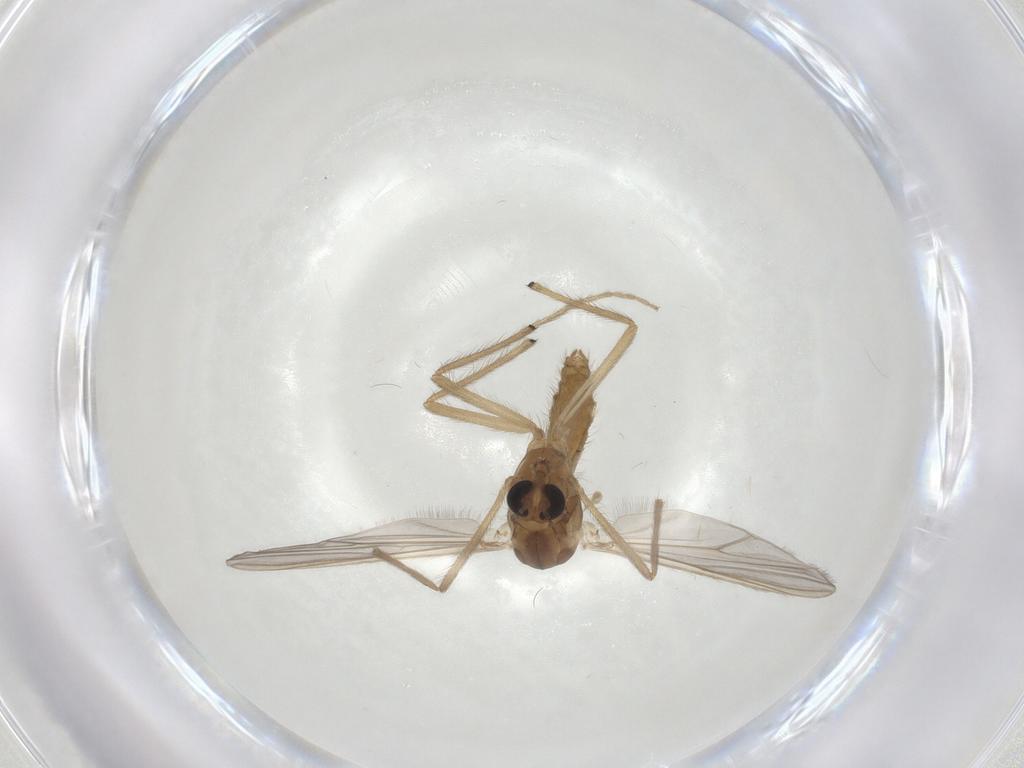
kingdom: Animalia
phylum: Arthropoda
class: Insecta
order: Diptera
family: Chironomidae
